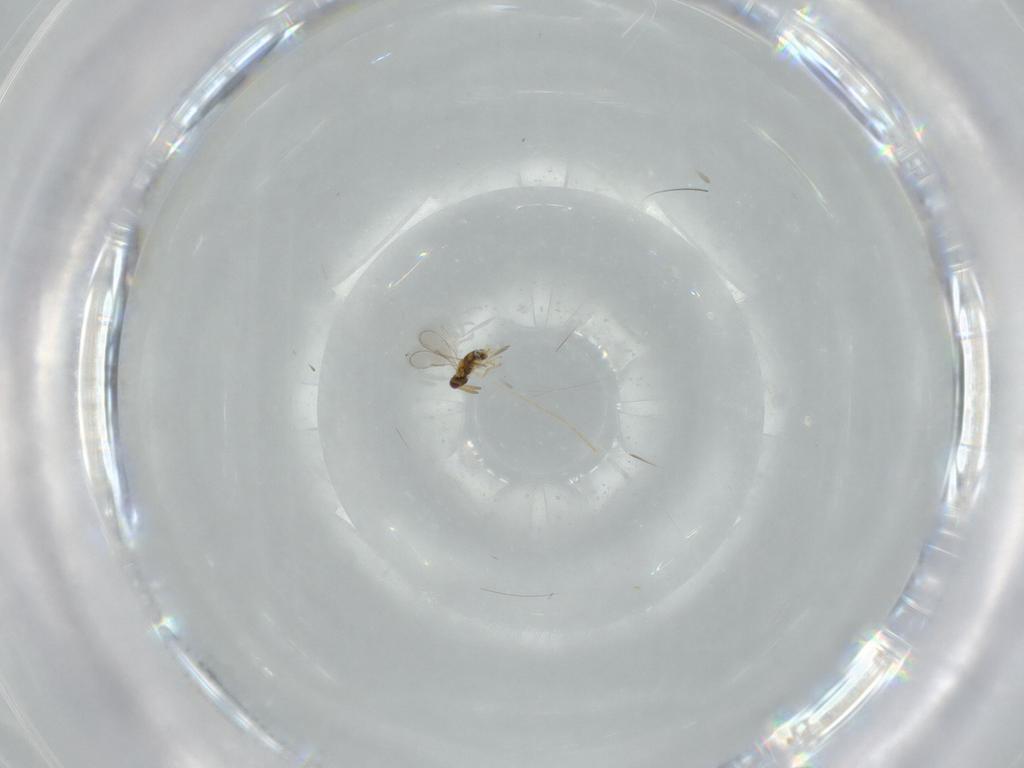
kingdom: Animalia
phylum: Arthropoda
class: Insecta
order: Hymenoptera
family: Aphelinidae
